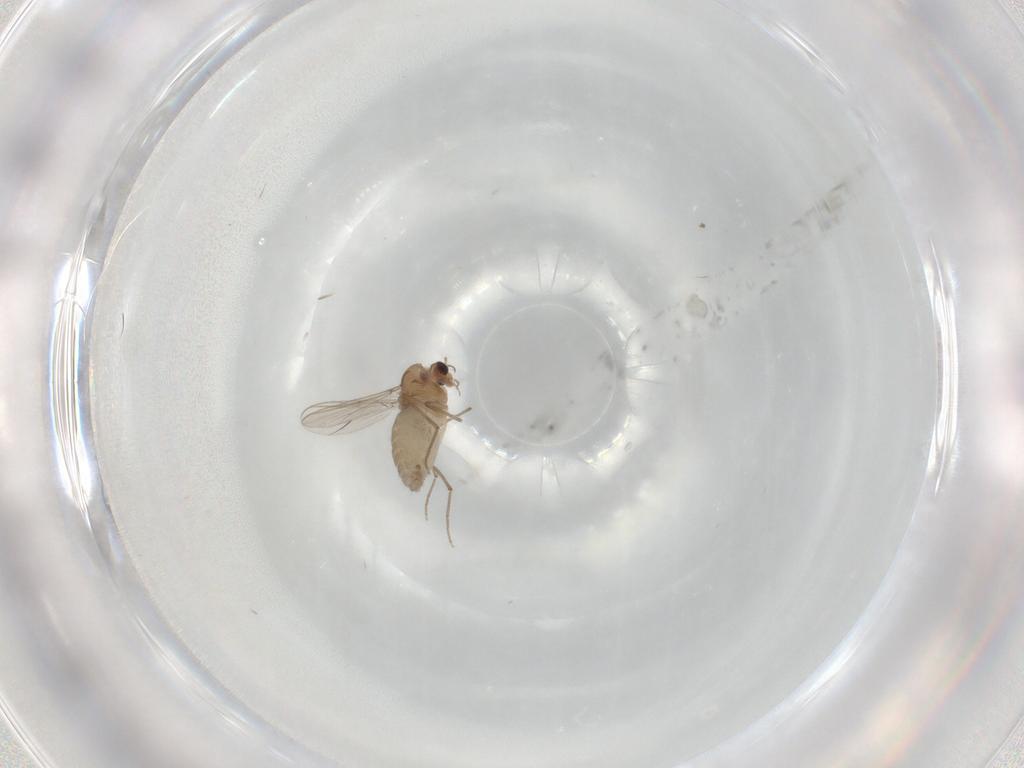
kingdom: Animalia
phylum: Arthropoda
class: Insecta
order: Diptera
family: Chironomidae
